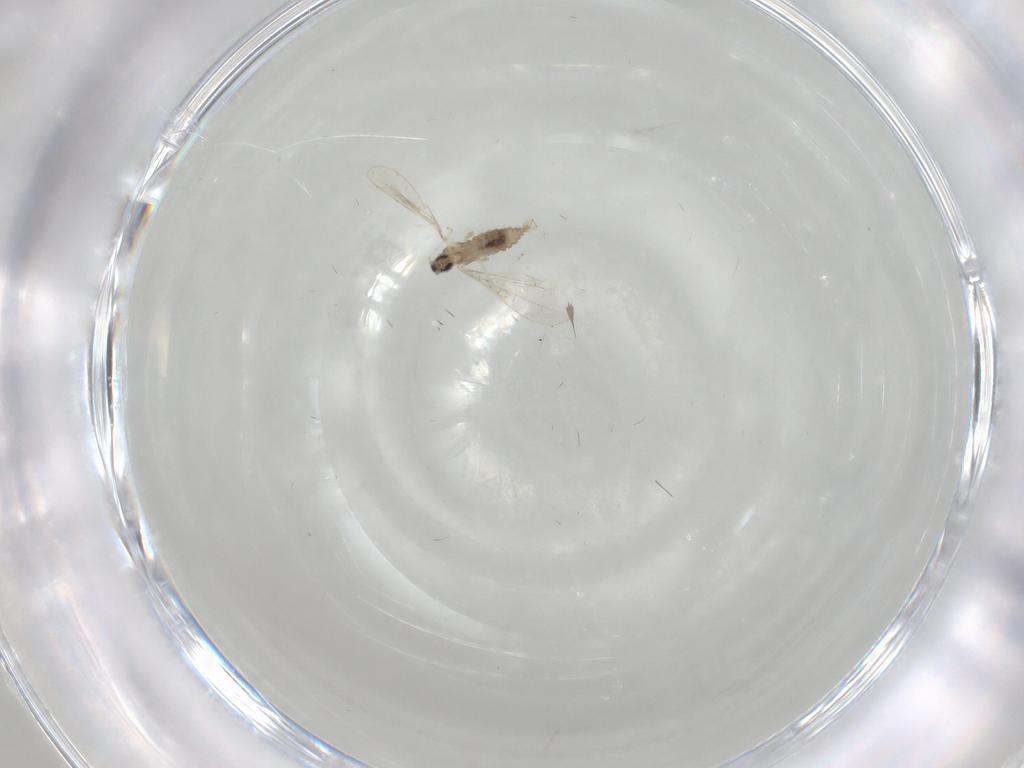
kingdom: Animalia
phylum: Arthropoda
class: Insecta
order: Diptera
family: Cecidomyiidae
